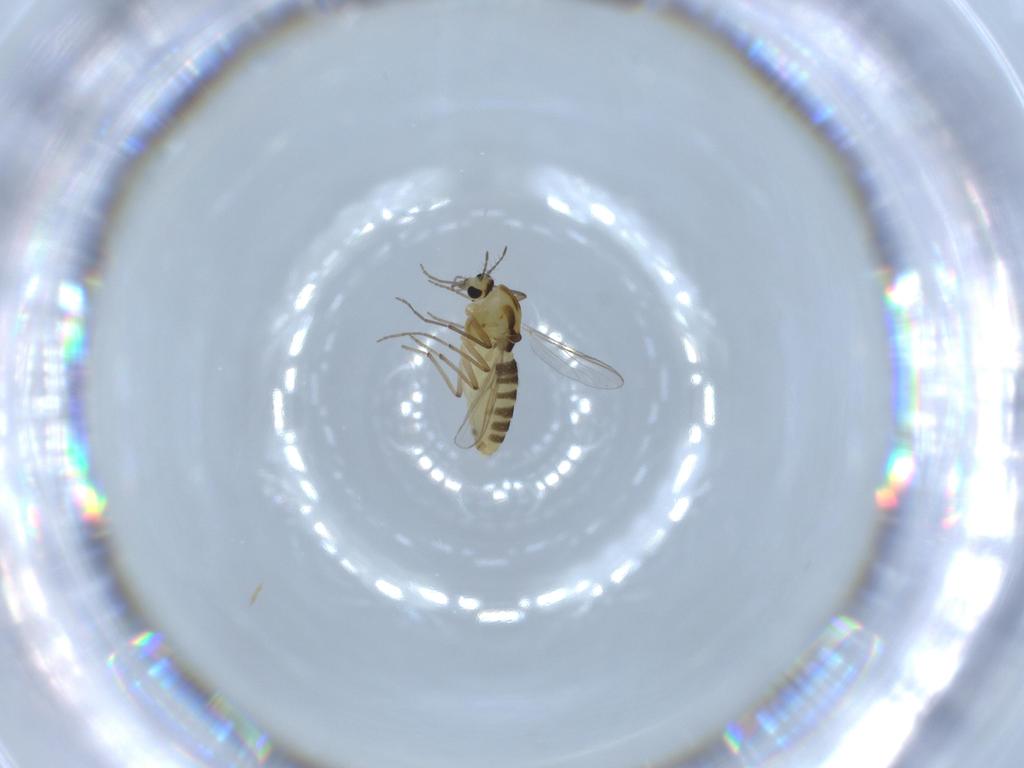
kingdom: Animalia
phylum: Arthropoda
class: Insecta
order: Diptera
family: Chironomidae
